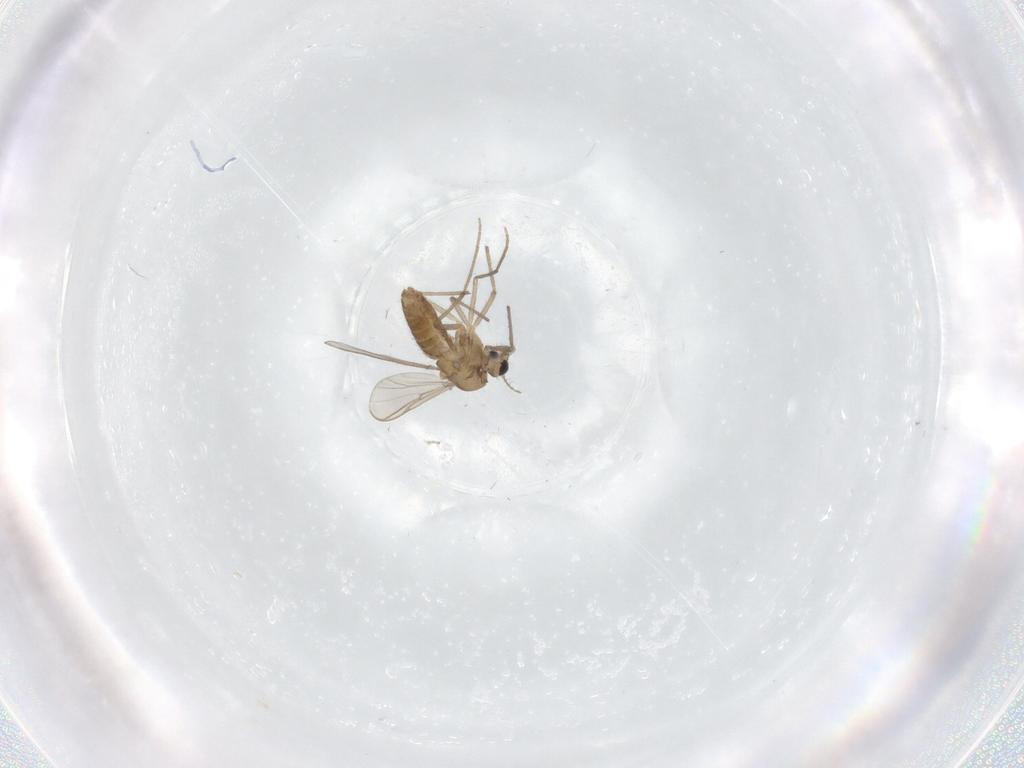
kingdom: Animalia
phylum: Arthropoda
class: Insecta
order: Diptera
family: Chironomidae
